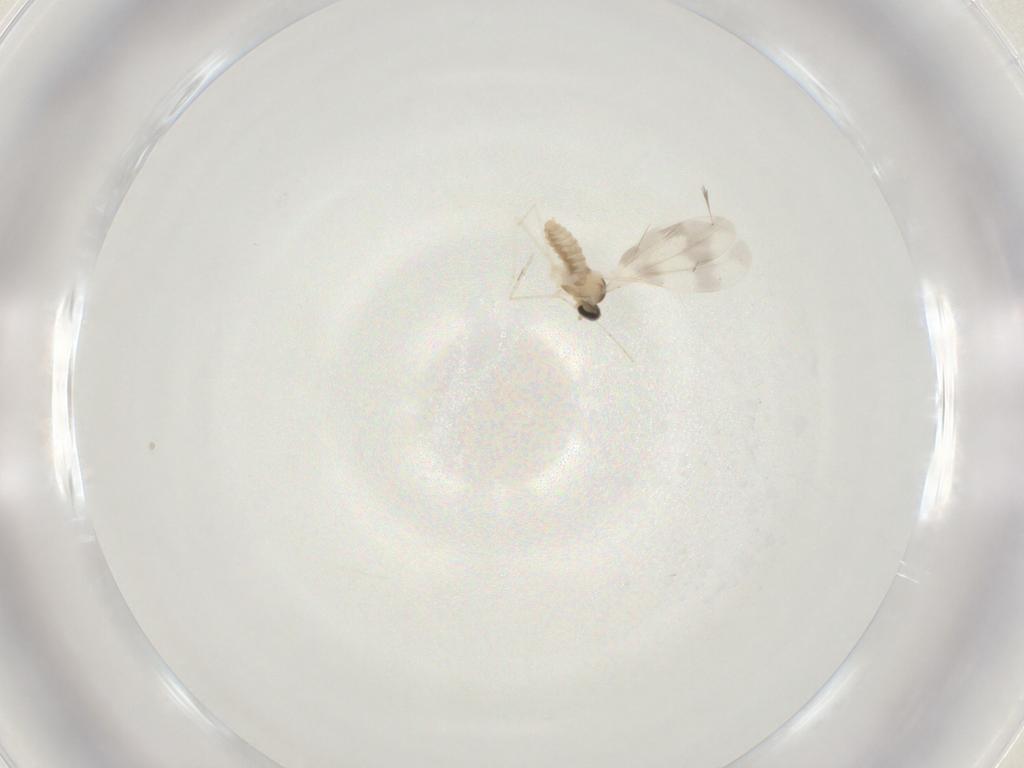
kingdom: Animalia
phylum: Arthropoda
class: Insecta
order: Diptera
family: Cecidomyiidae
